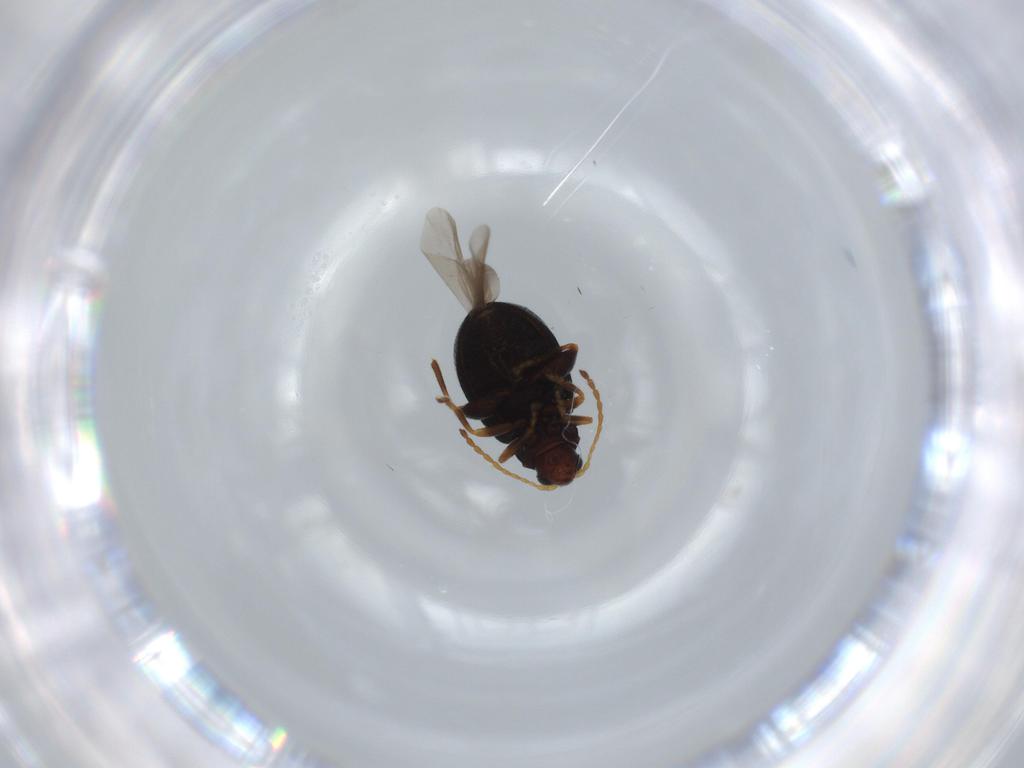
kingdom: Animalia
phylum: Arthropoda
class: Insecta
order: Coleoptera
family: Chrysomelidae
